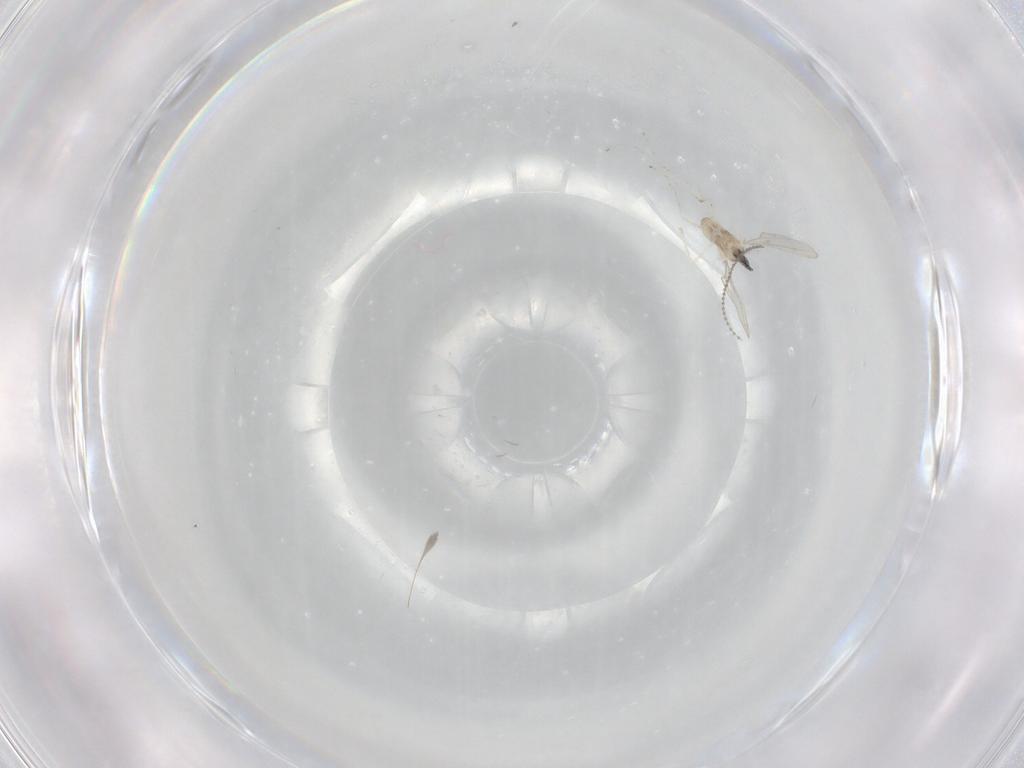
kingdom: Animalia
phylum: Arthropoda
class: Insecta
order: Diptera
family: Cecidomyiidae
